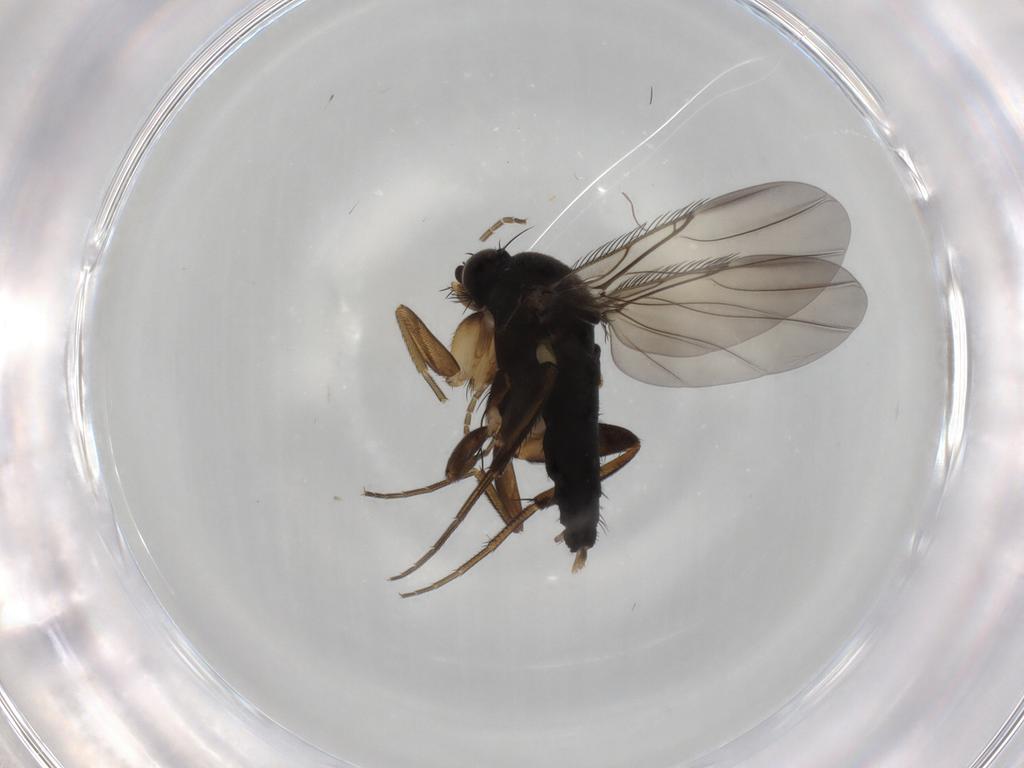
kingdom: Animalia
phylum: Arthropoda
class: Insecta
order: Diptera
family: Phoridae
